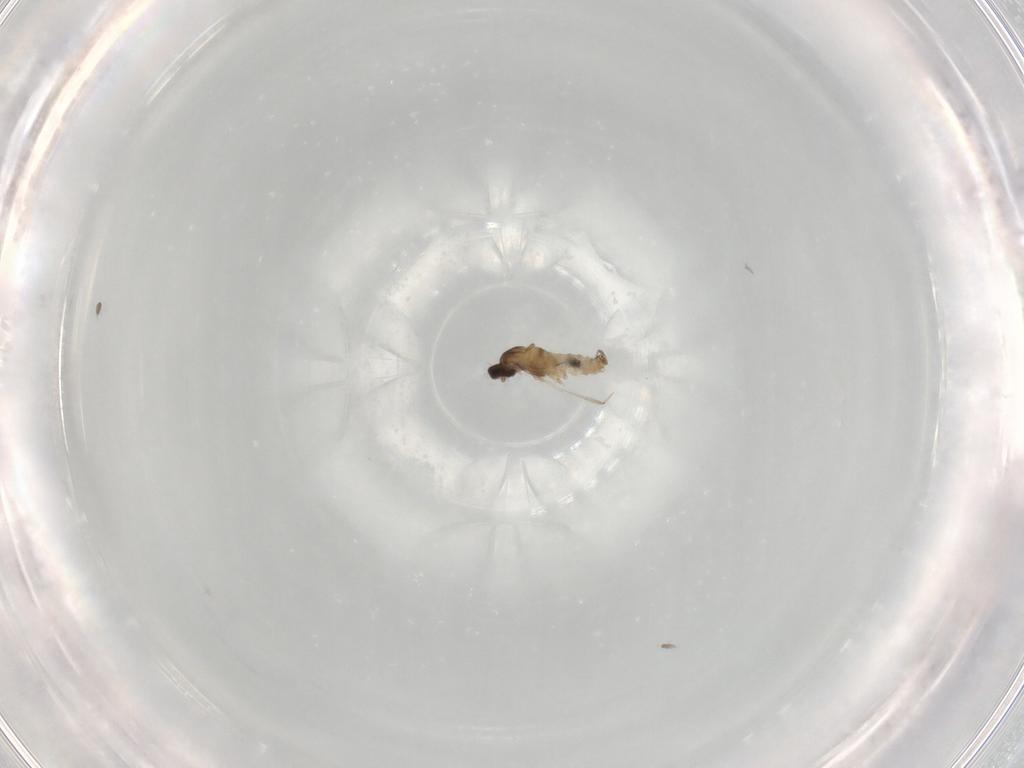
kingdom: Animalia
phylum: Arthropoda
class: Insecta
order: Diptera
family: Cecidomyiidae
